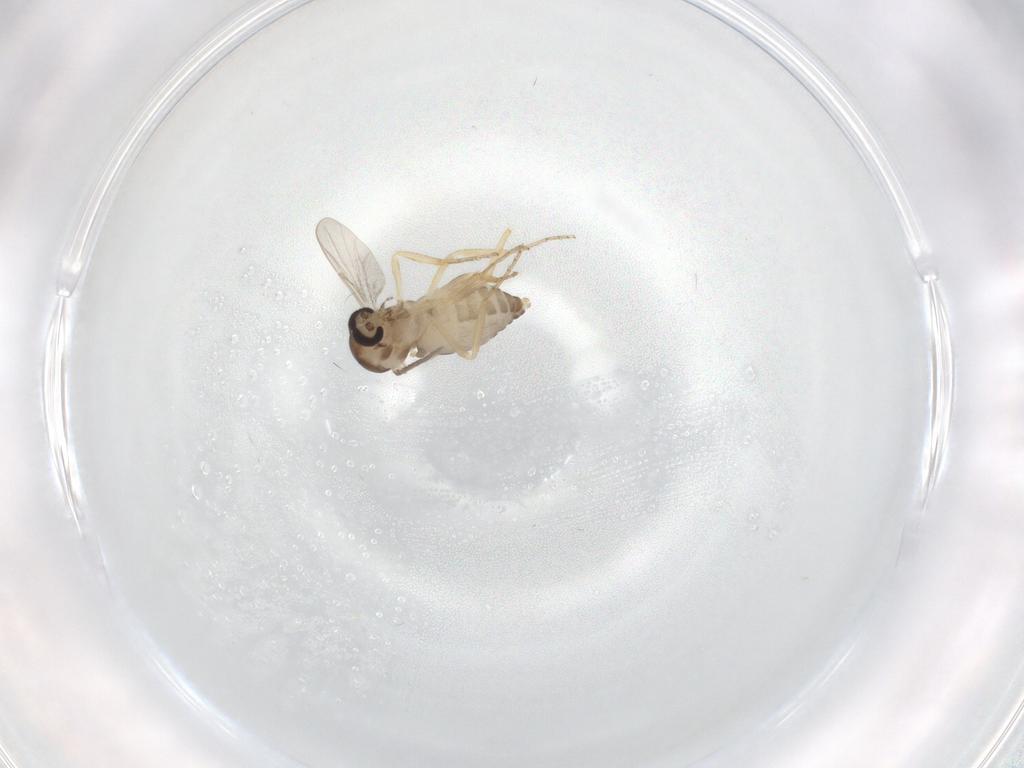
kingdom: Animalia
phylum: Arthropoda
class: Insecta
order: Diptera
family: Ceratopogonidae
